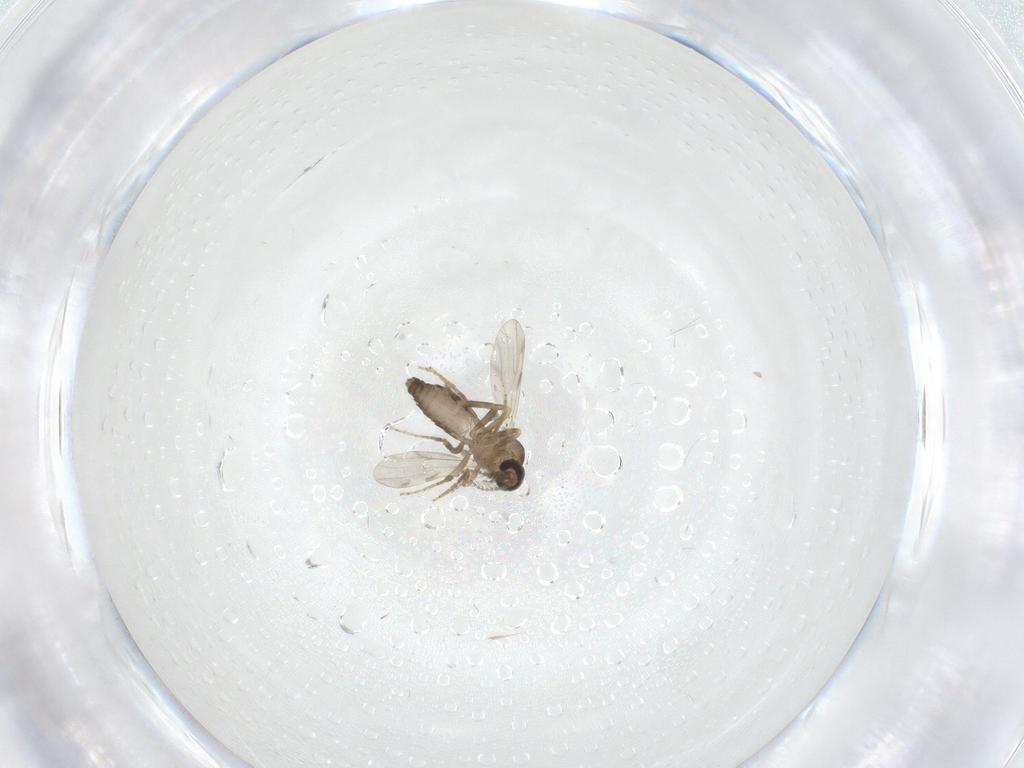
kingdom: Animalia
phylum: Arthropoda
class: Insecta
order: Diptera
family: Ceratopogonidae
